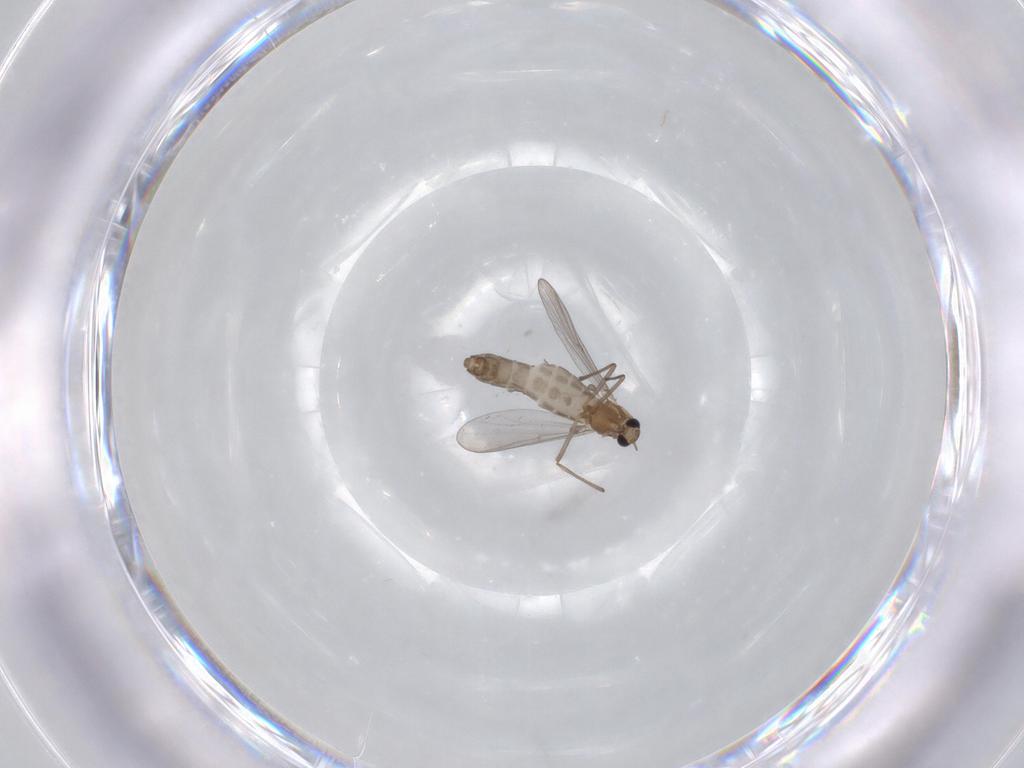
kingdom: Animalia
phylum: Arthropoda
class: Insecta
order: Diptera
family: Chironomidae
